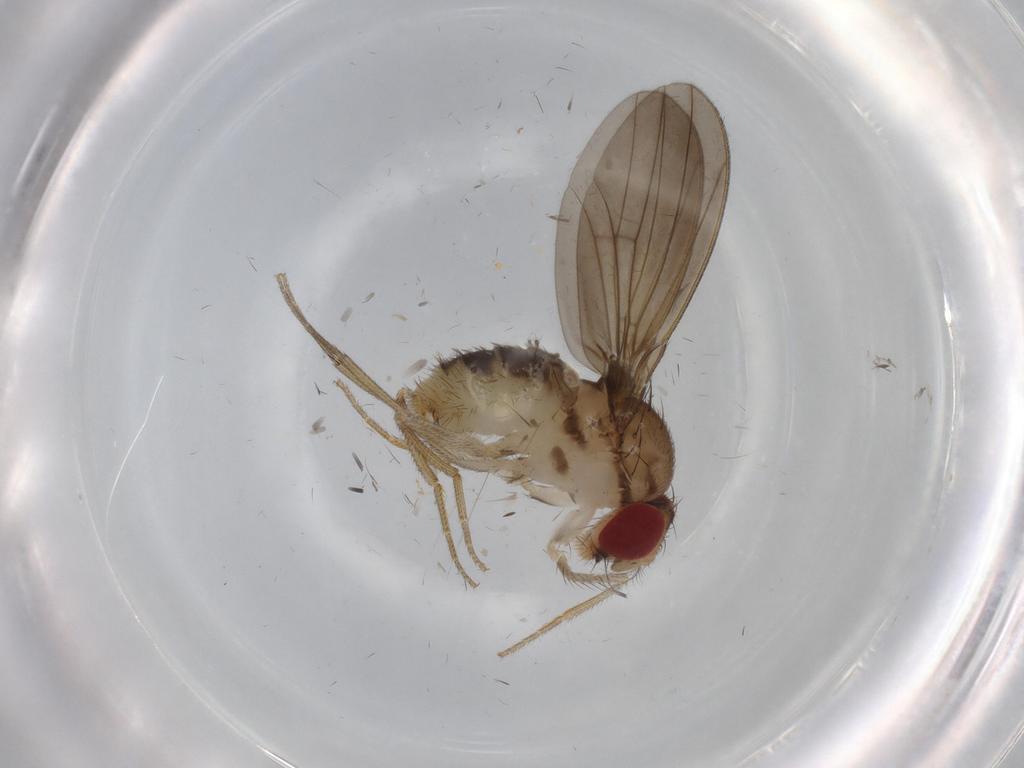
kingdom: Animalia
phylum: Arthropoda
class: Insecta
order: Diptera
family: Drosophilidae
